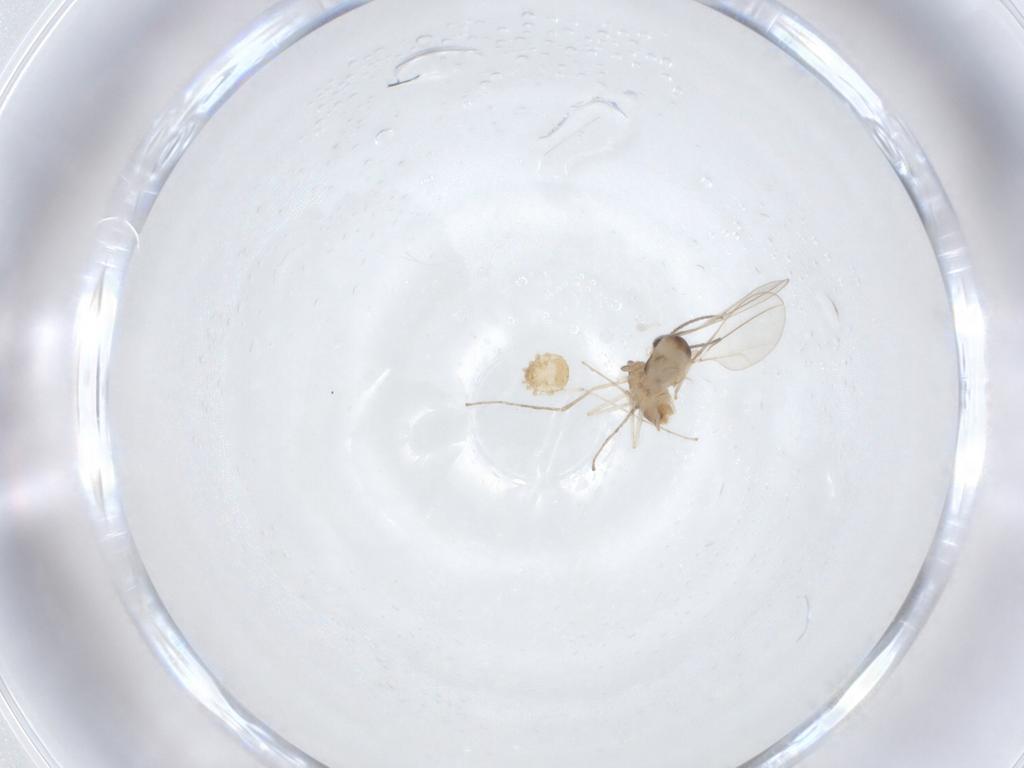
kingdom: Animalia
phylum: Arthropoda
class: Insecta
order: Diptera
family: Cecidomyiidae
